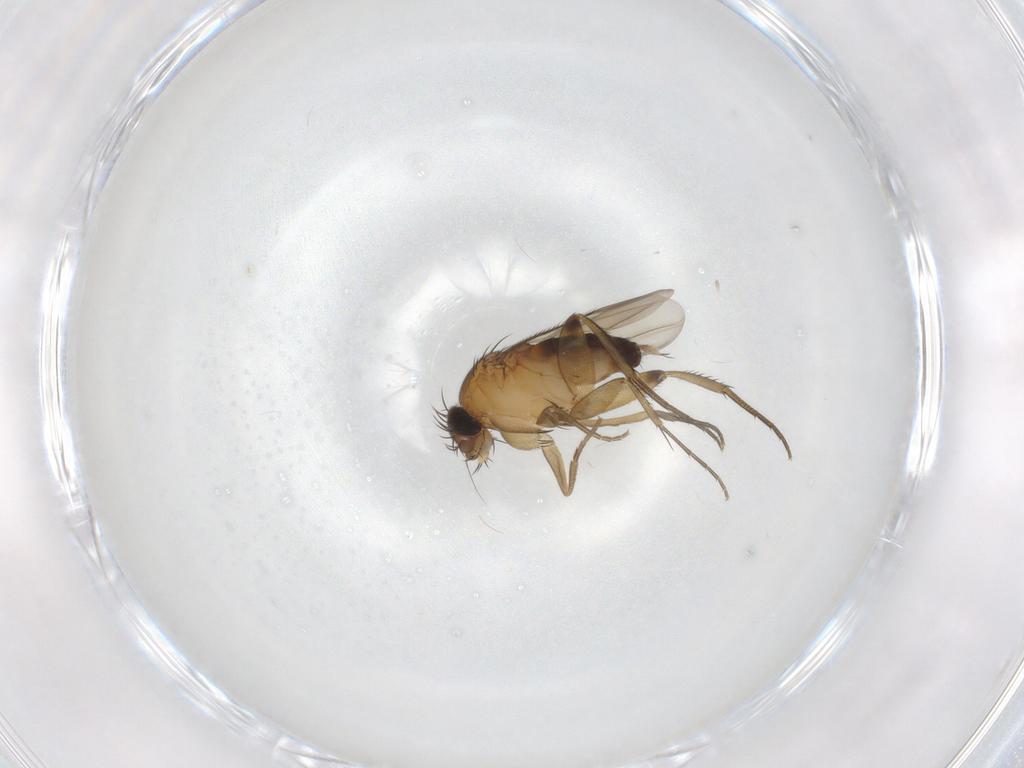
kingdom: Animalia
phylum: Arthropoda
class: Insecta
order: Diptera
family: Phoridae
